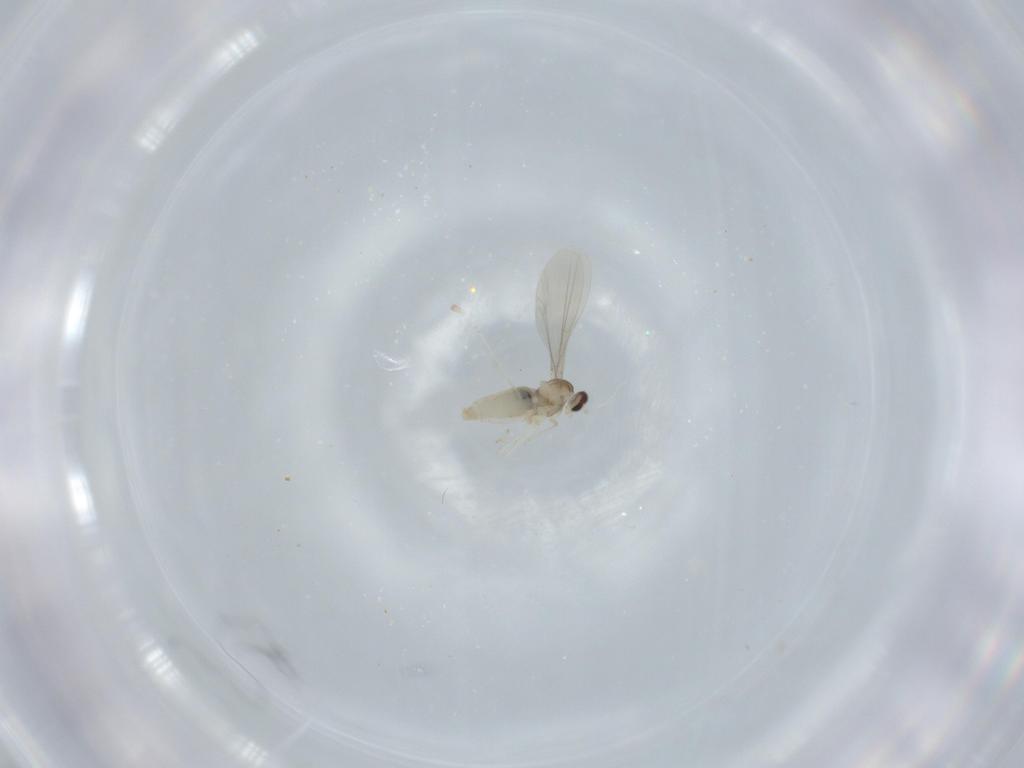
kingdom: Animalia
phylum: Arthropoda
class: Insecta
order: Diptera
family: Cecidomyiidae
